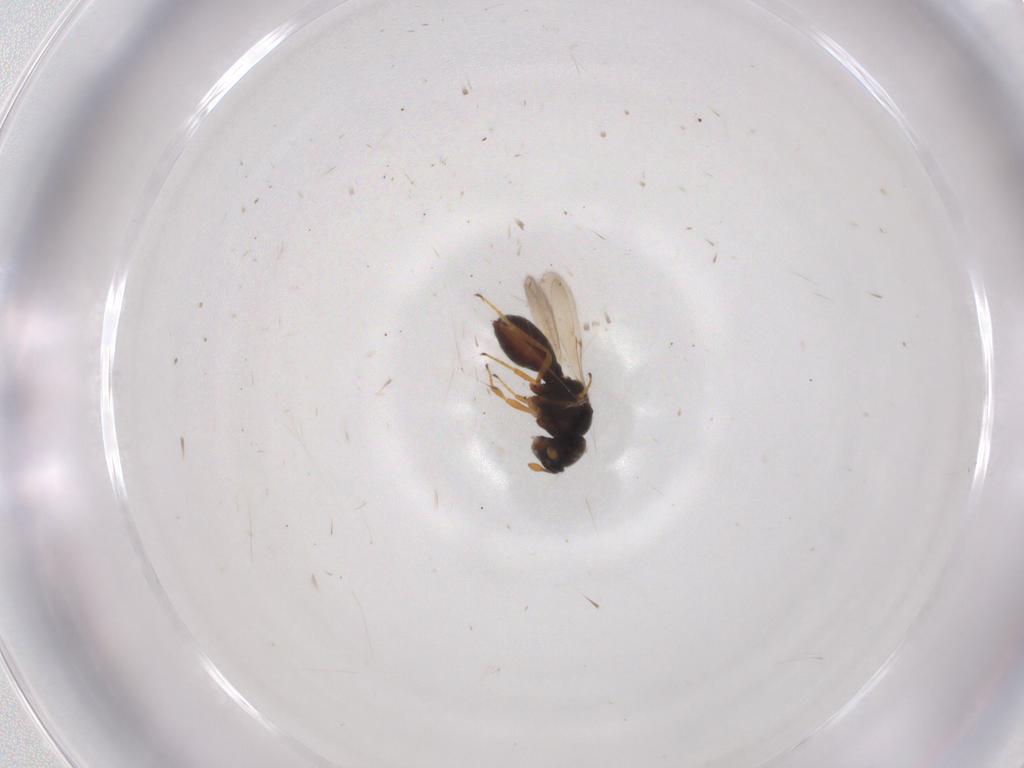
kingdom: Animalia
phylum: Arthropoda
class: Insecta
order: Hymenoptera
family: Scelionidae
